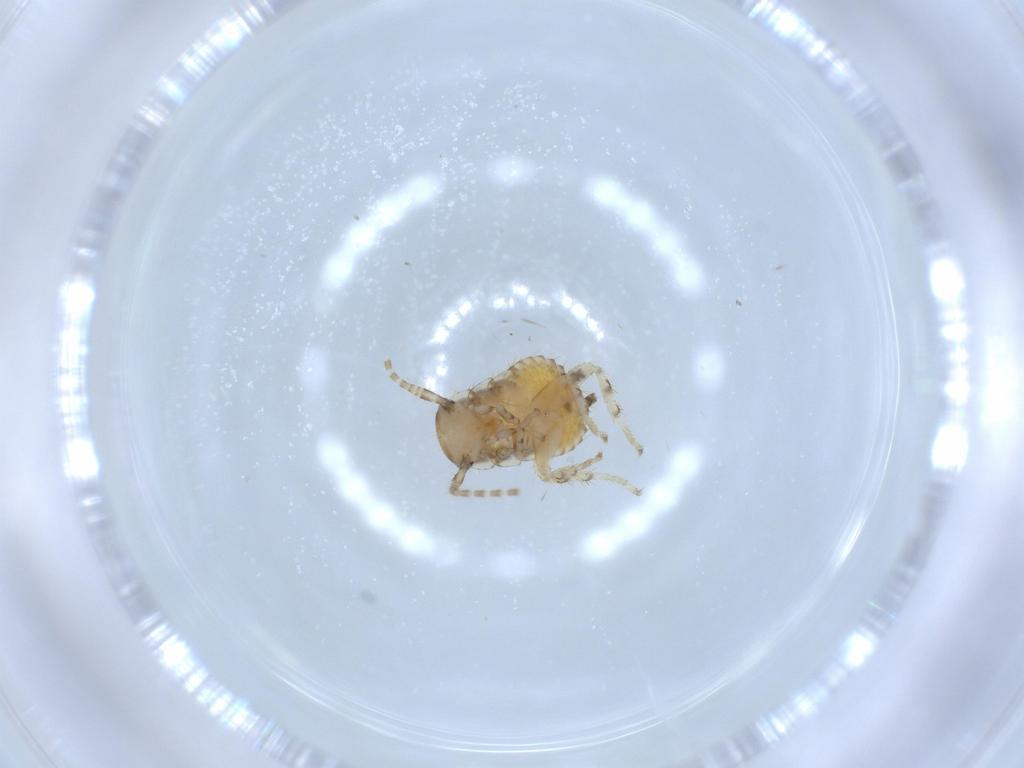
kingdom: Animalia
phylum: Arthropoda
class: Insecta
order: Blattodea
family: Ectobiidae
